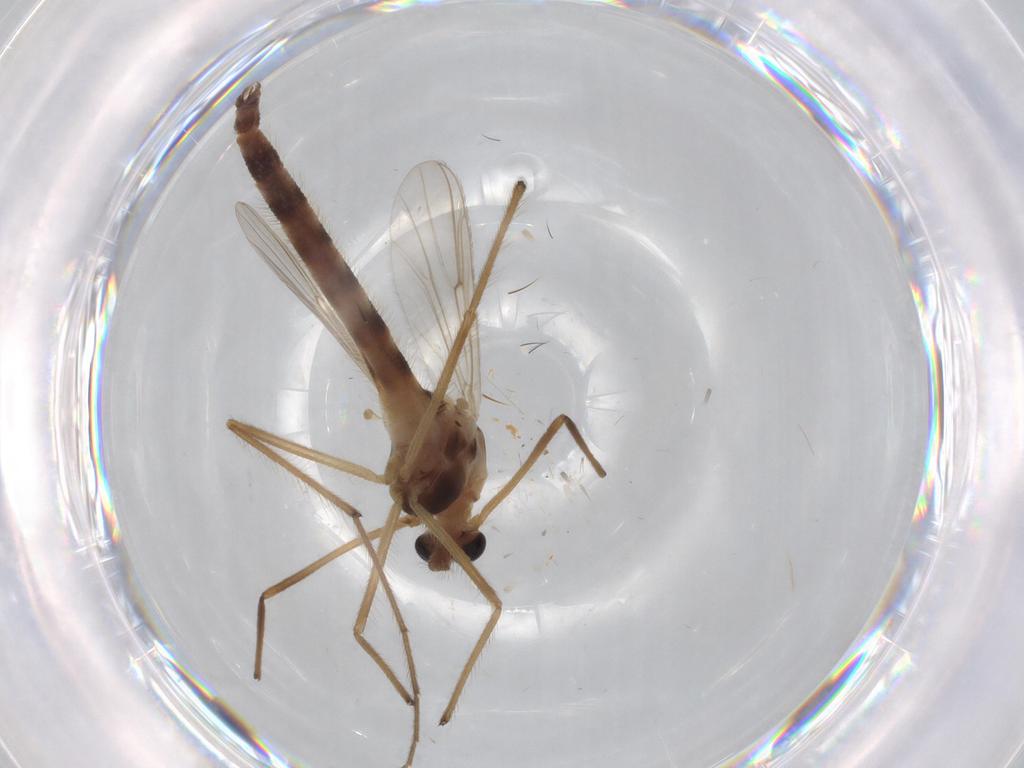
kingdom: Animalia
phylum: Arthropoda
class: Insecta
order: Diptera
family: Chironomidae
